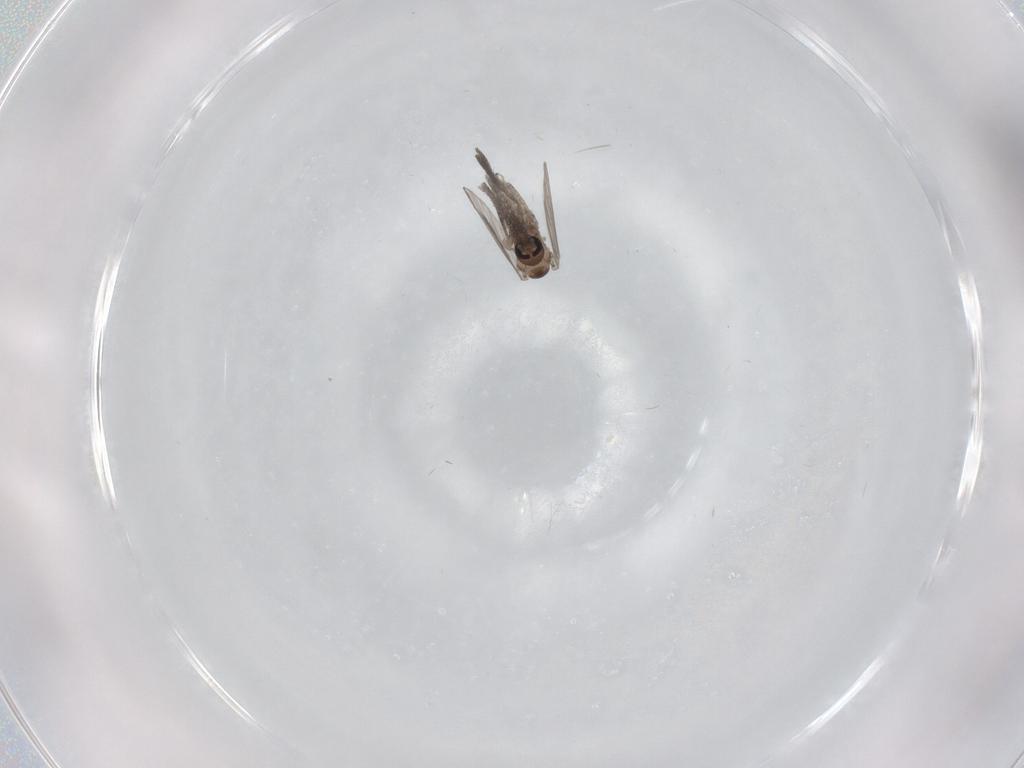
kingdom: Animalia
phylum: Arthropoda
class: Insecta
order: Diptera
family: Psychodidae
